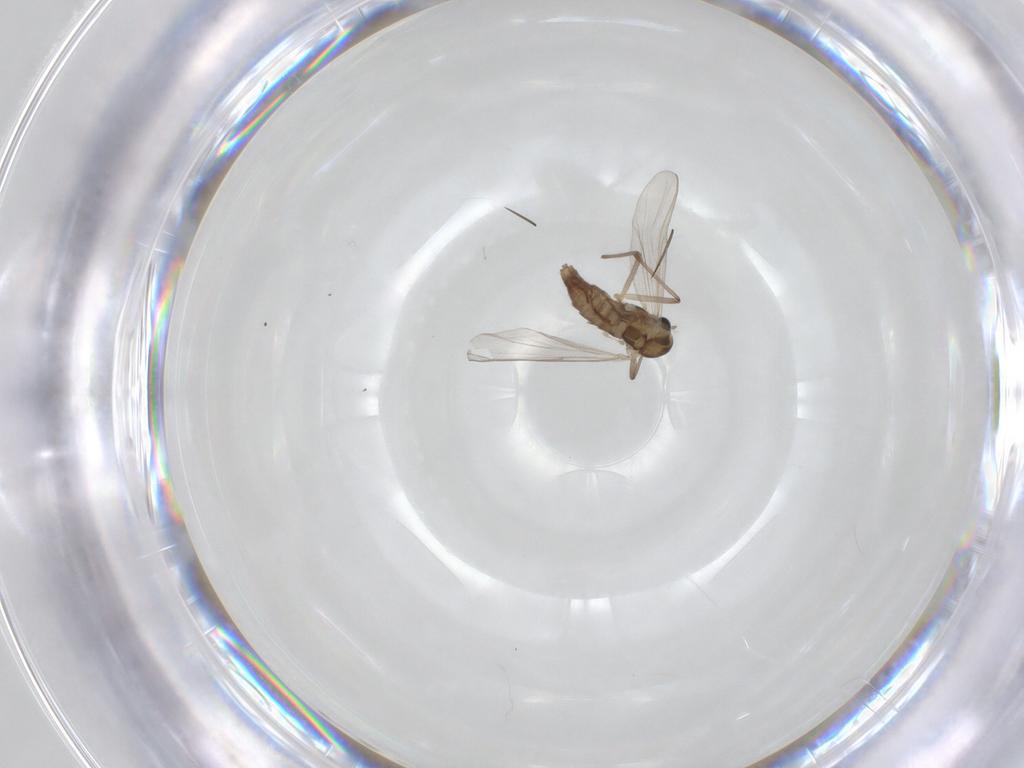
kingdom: Animalia
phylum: Arthropoda
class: Insecta
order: Diptera
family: Chironomidae
